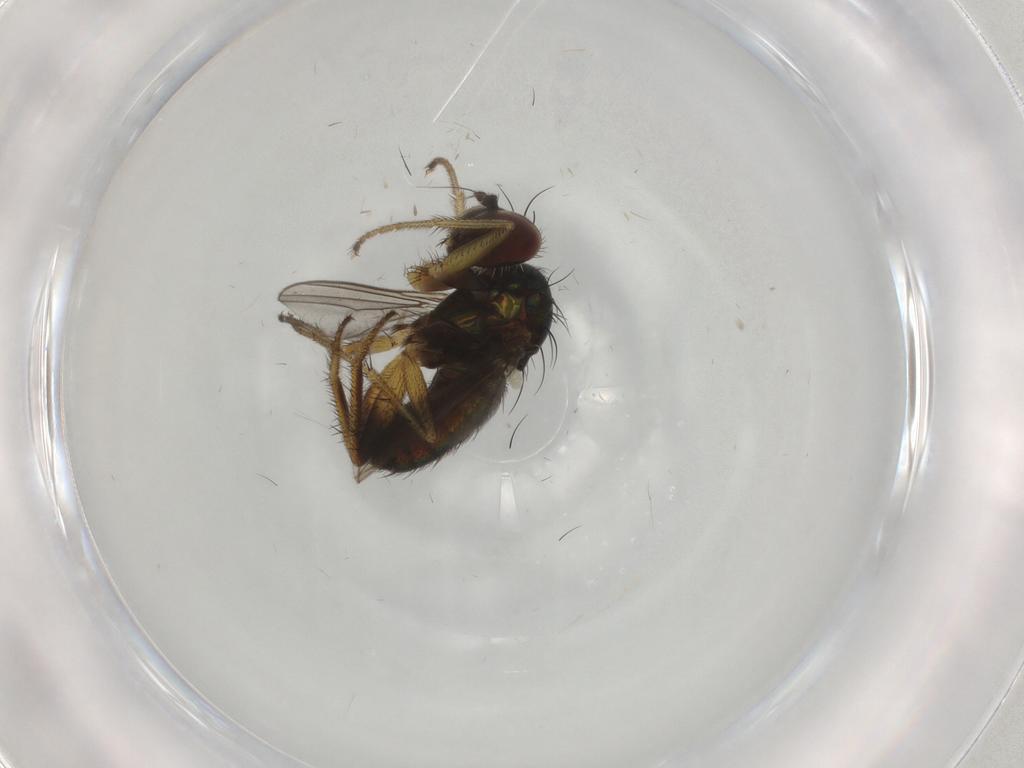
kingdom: Animalia
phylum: Arthropoda
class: Insecta
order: Diptera
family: Dolichopodidae
